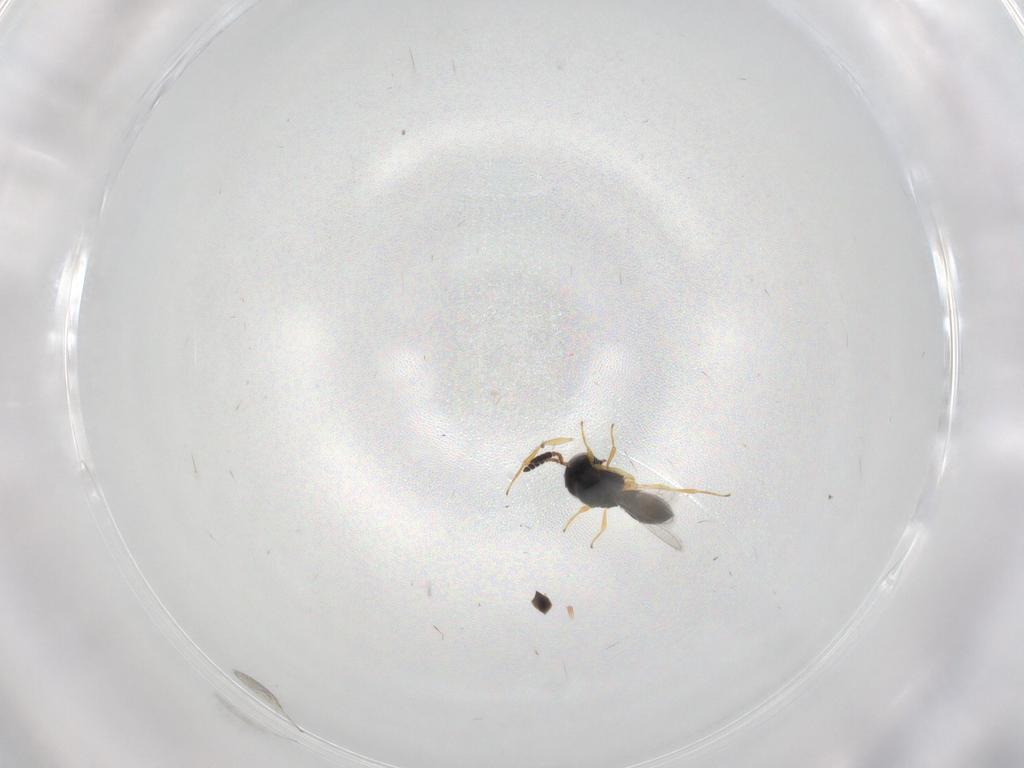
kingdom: Animalia
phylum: Arthropoda
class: Insecta
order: Hymenoptera
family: Scelionidae
